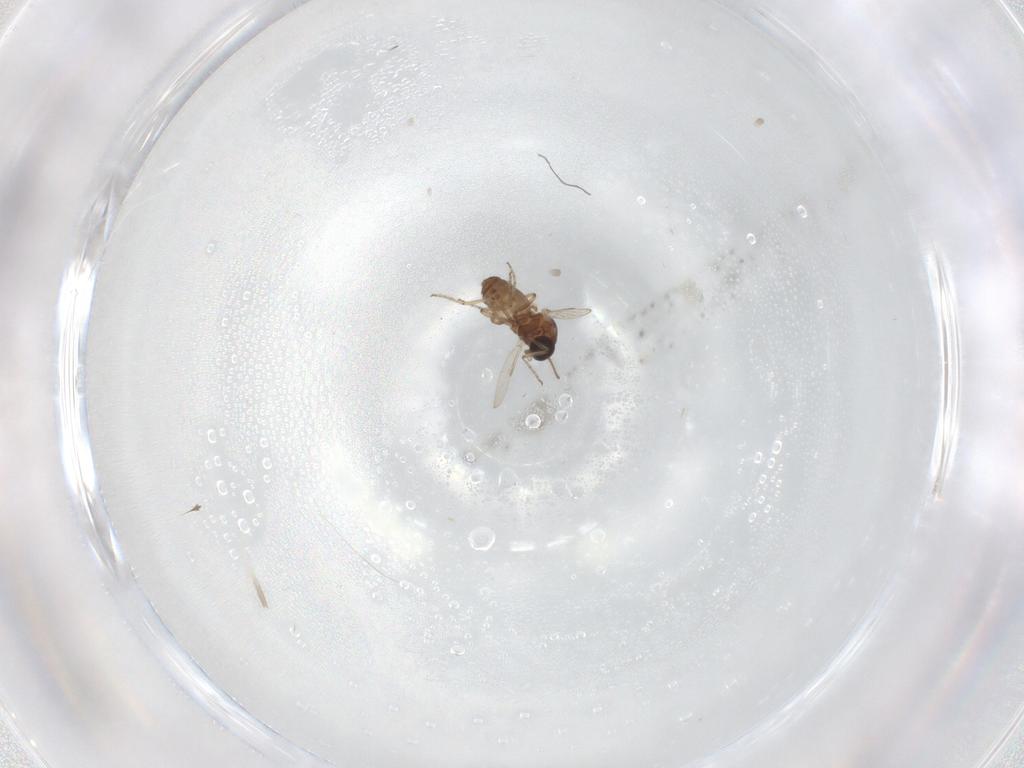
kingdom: Animalia
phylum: Arthropoda
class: Insecta
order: Diptera
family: Ceratopogonidae
